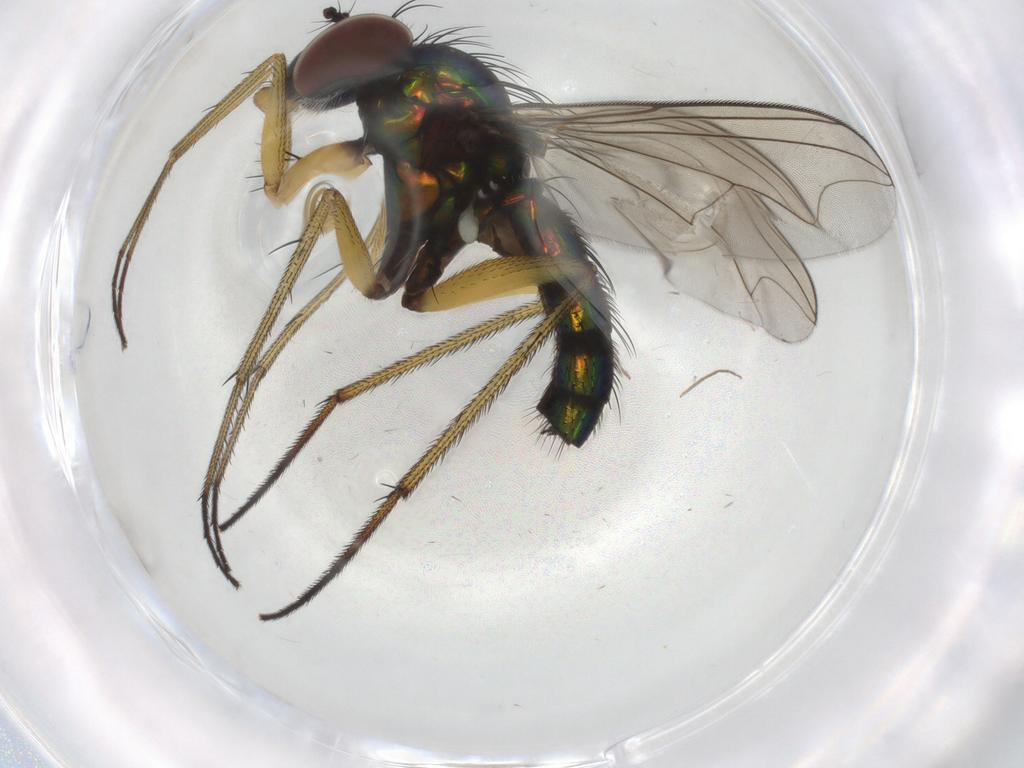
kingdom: Animalia
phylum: Arthropoda
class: Insecta
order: Diptera
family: Dolichopodidae
